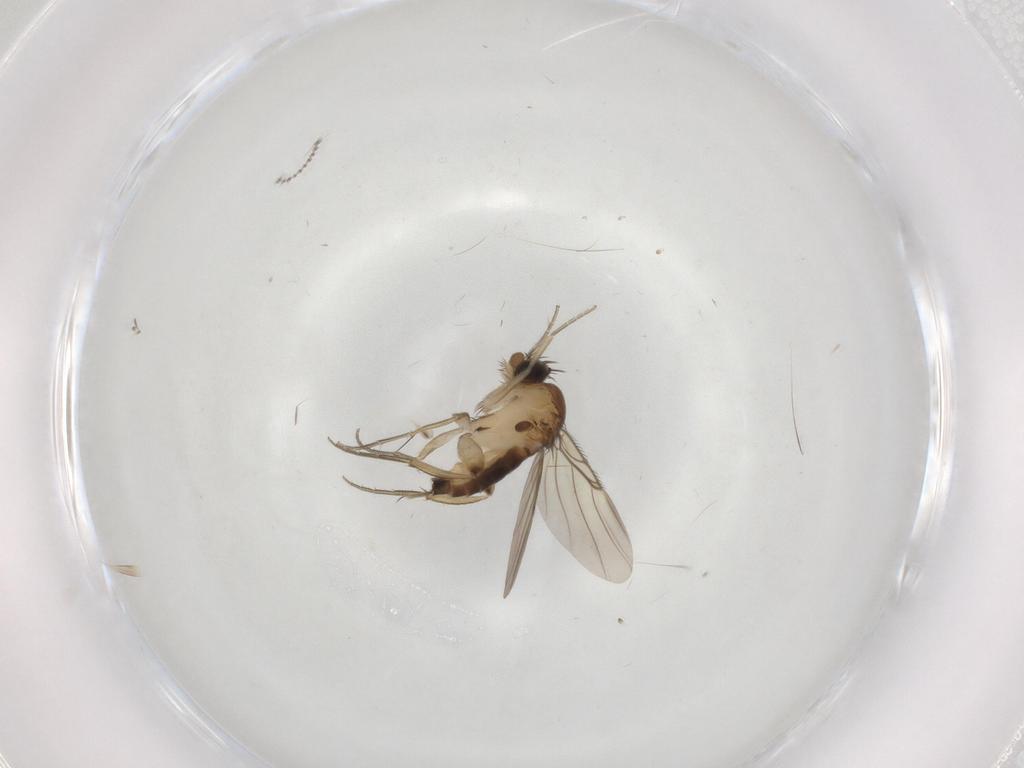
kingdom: Animalia
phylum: Arthropoda
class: Insecta
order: Diptera
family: Phoridae
